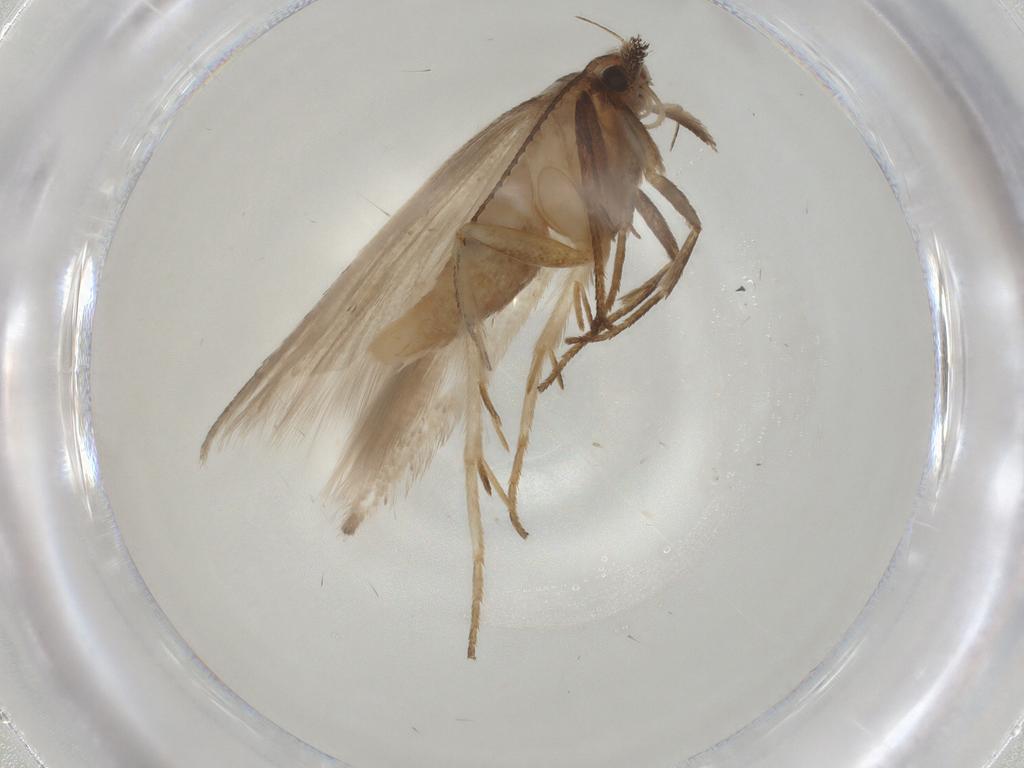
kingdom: Animalia
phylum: Arthropoda
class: Insecta
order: Lepidoptera
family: Gelechiidae
